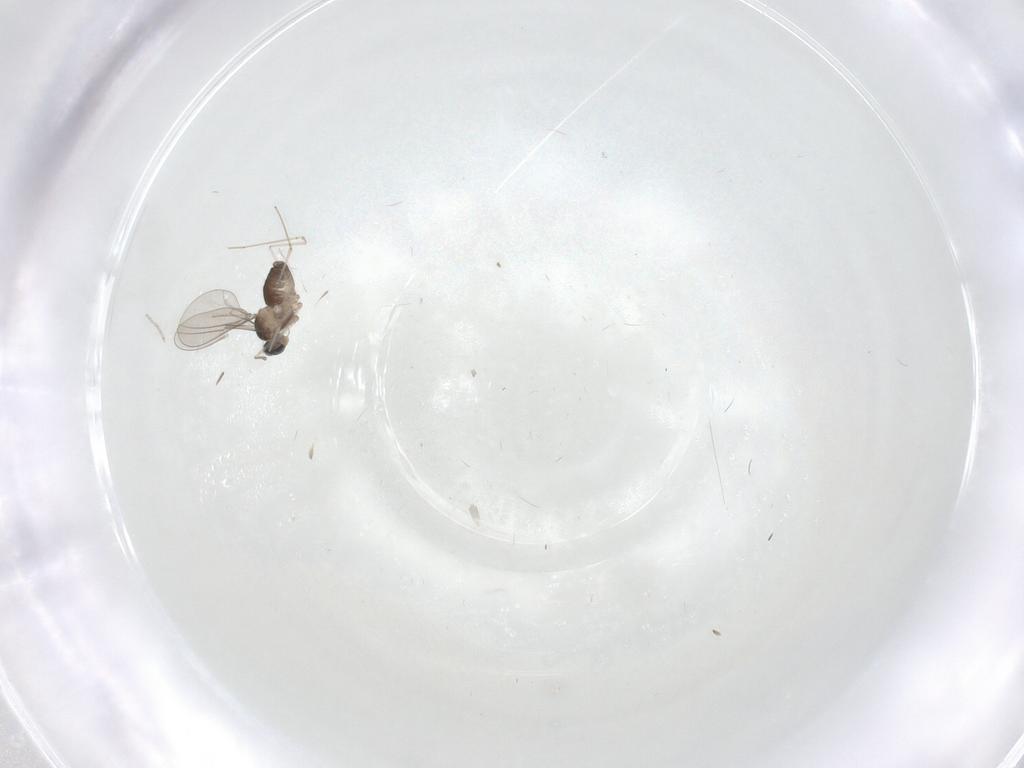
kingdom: Animalia
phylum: Arthropoda
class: Insecta
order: Diptera
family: Cecidomyiidae
